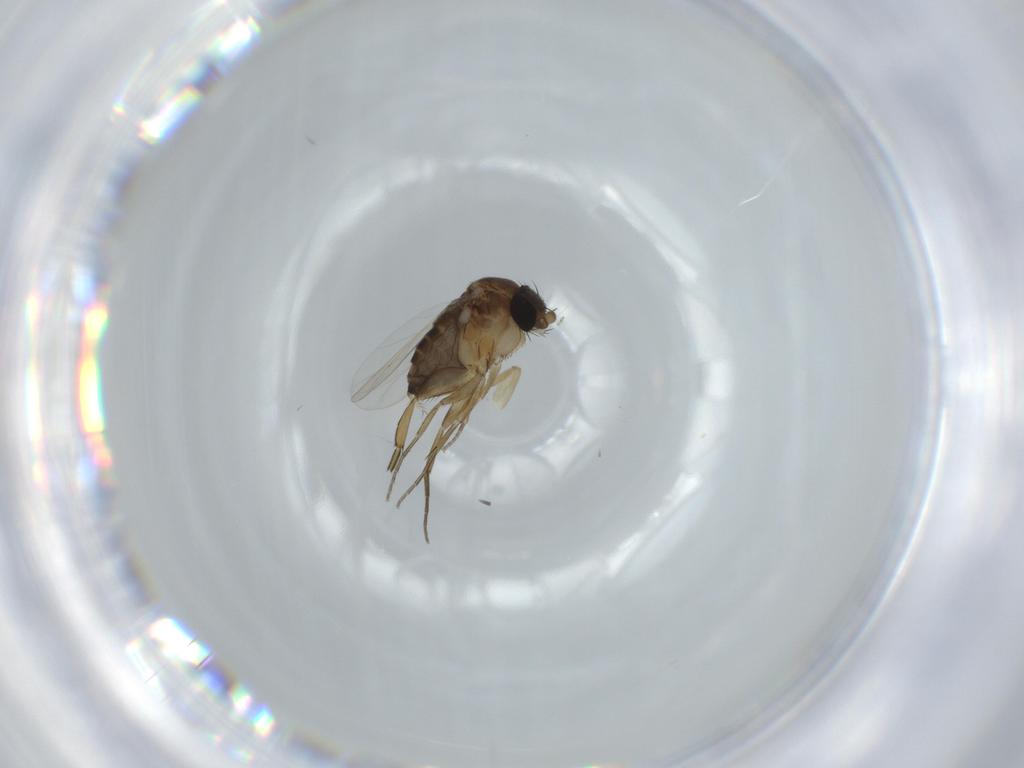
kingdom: Animalia
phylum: Arthropoda
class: Insecta
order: Diptera
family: Phoridae
